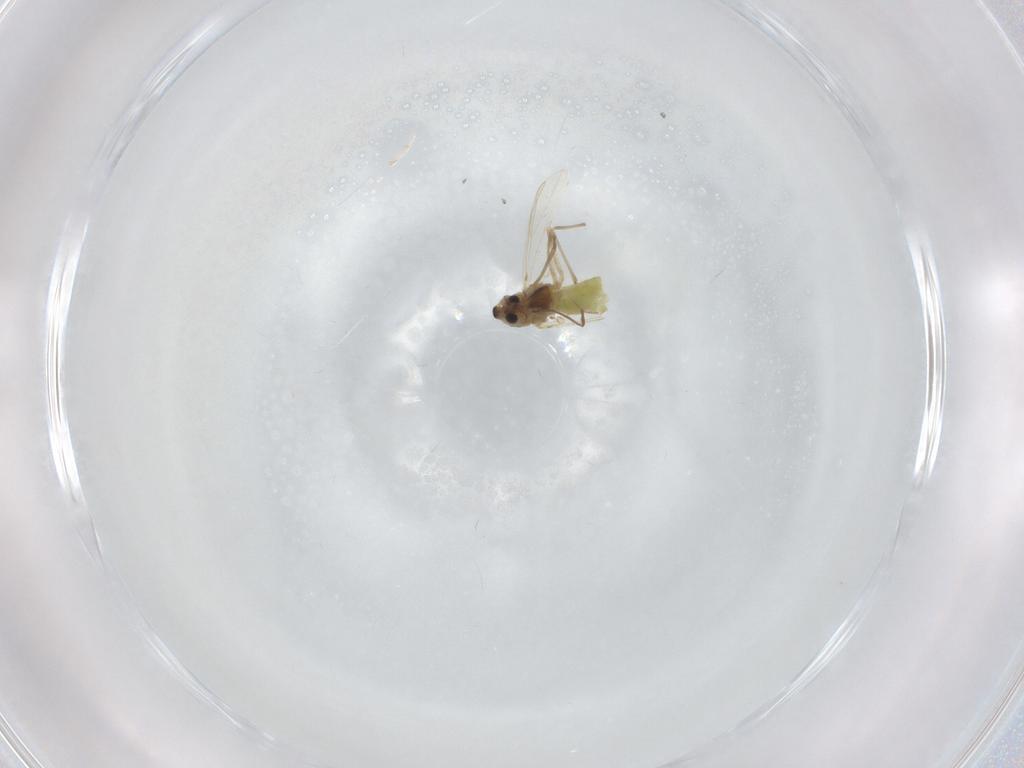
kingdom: Animalia
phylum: Arthropoda
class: Insecta
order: Diptera
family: Chironomidae
